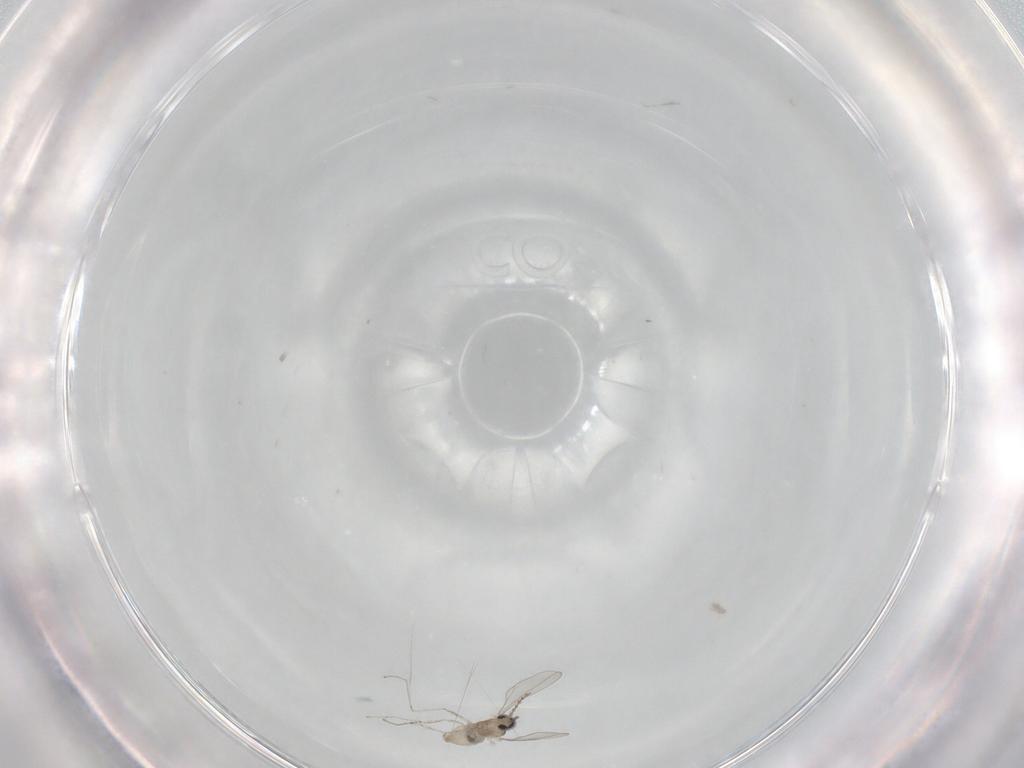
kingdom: Animalia
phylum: Arthropoda
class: Insecta
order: Diptera
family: Cecidomyiidae
